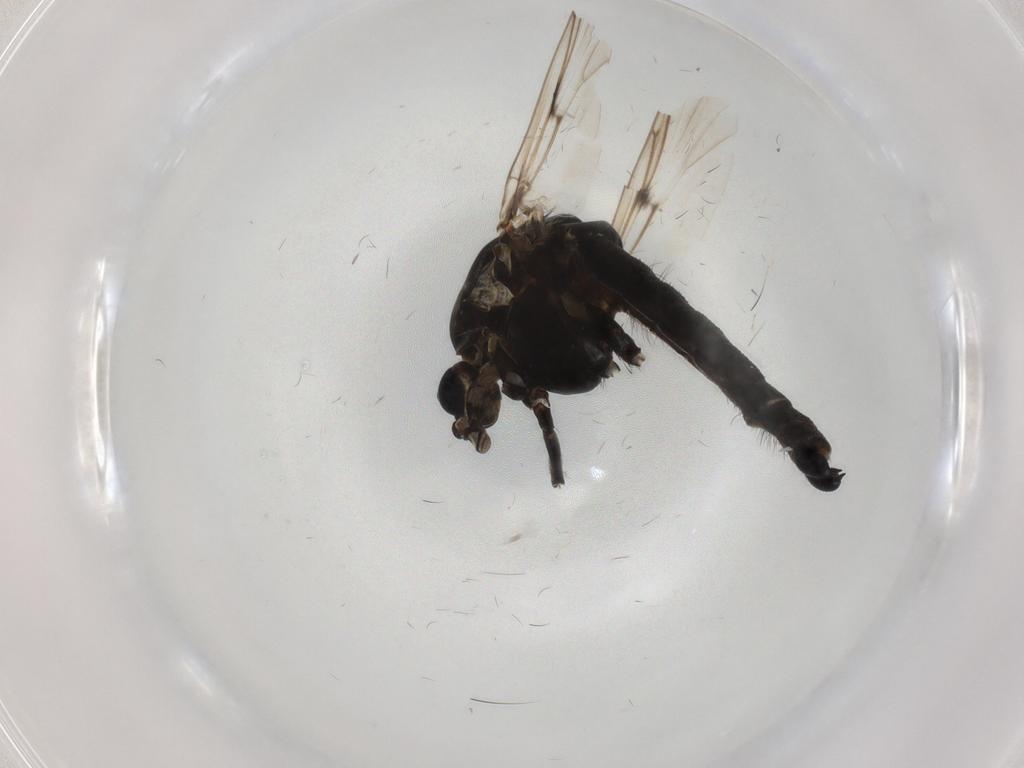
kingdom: Animalia
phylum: Arthropoda
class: Insecta
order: Diptera
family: Chironomidae
